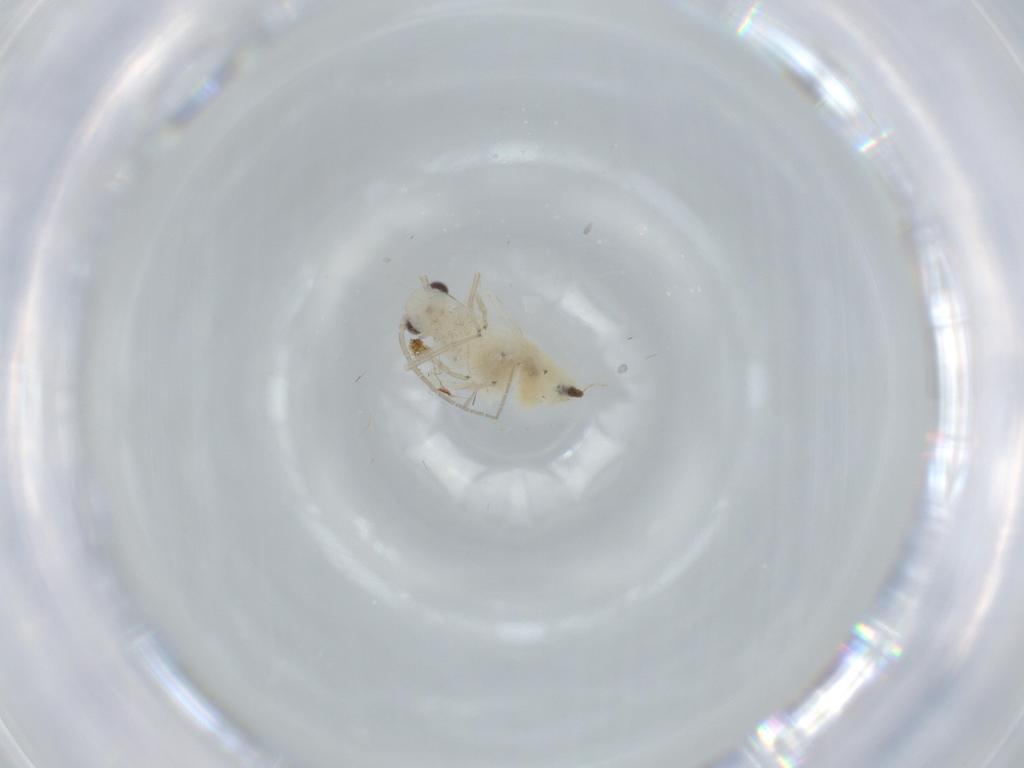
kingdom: Animalia
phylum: Arthropoda
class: Insecta
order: Psocodea
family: Caeciliusidae
